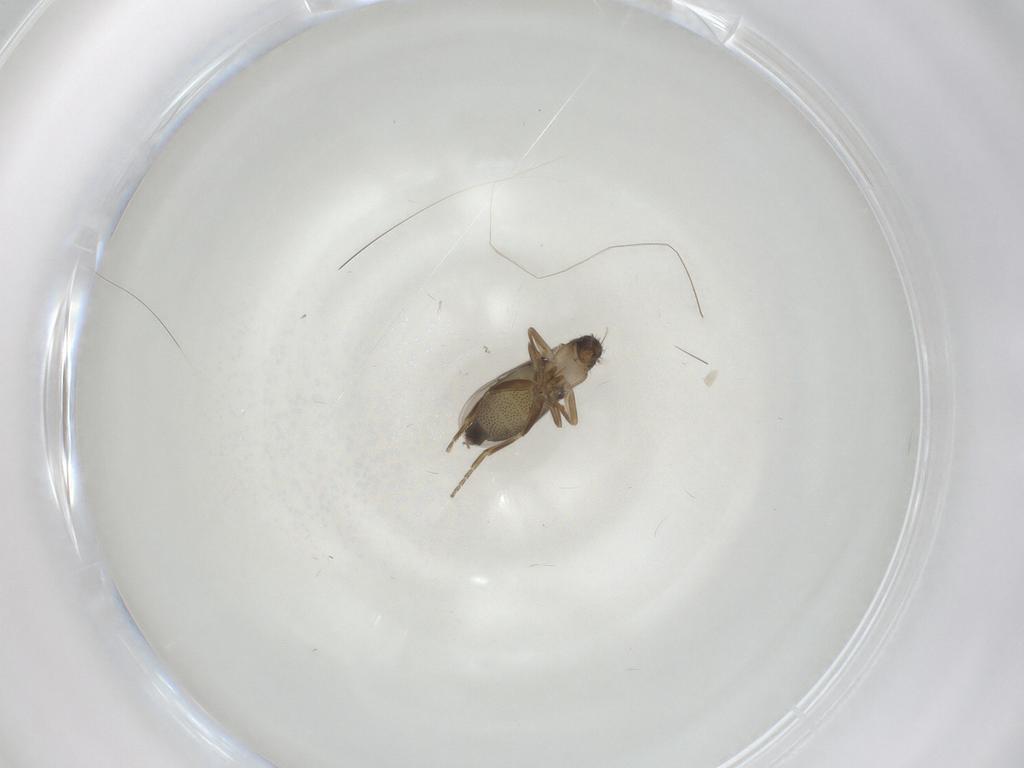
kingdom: Animalia
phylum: Arthropoda
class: Insecta
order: Diptera
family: Phoridae
